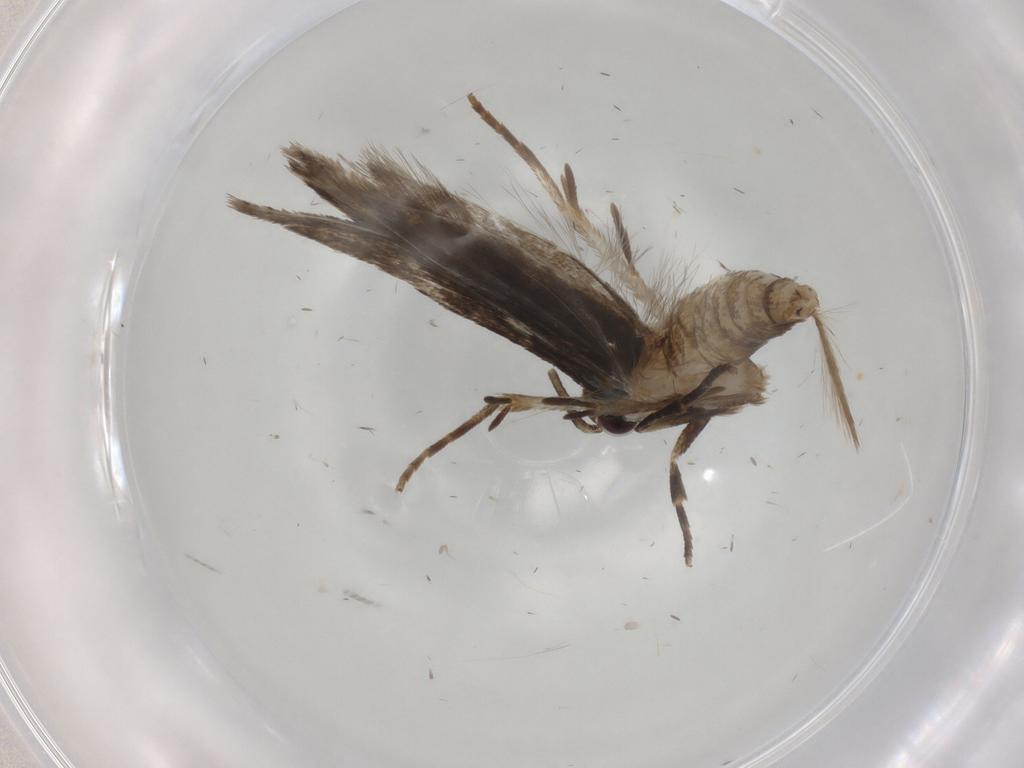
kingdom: Animalia
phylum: Arthropoda
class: Insecta
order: Lepidoptera
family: Gelechiidae
